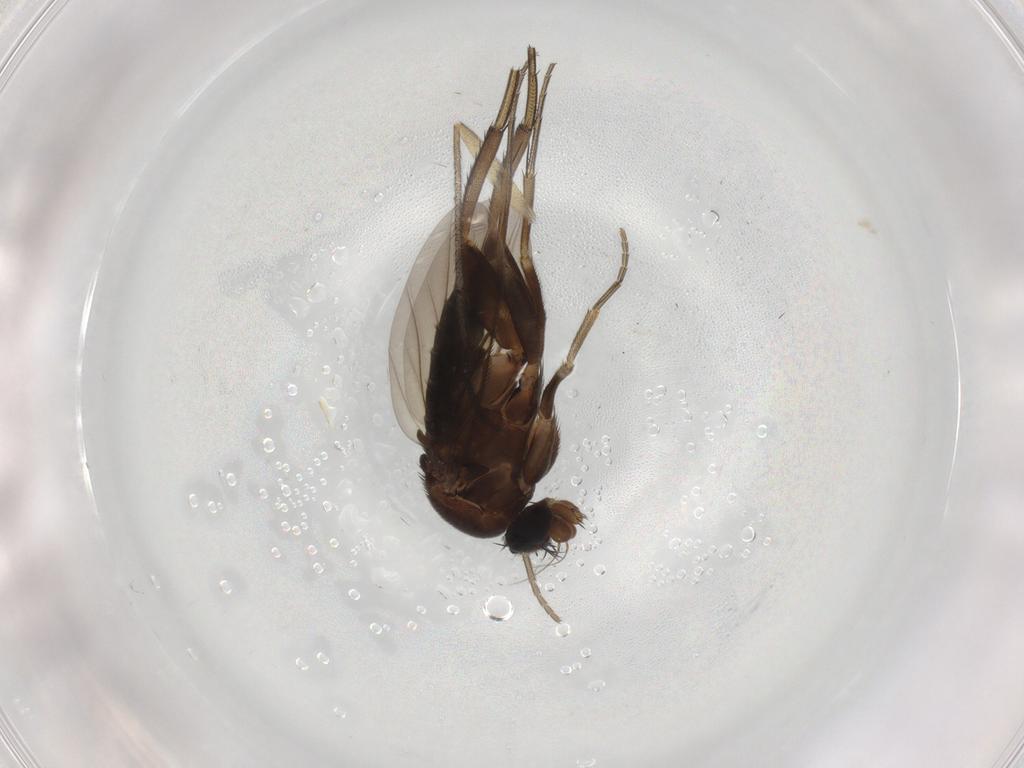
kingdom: Animalia
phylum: Arthropoda
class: Insecta
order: Diptera
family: Phoridae
